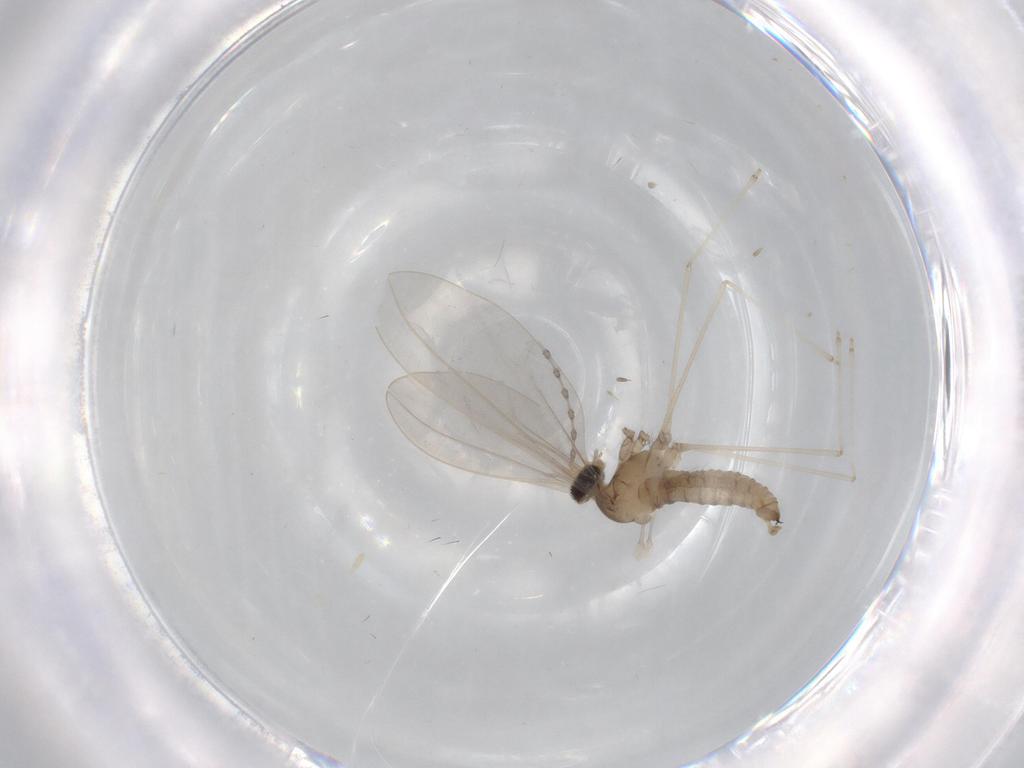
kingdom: Animalia
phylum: Arthropoda
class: Insecta
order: Diptera
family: Cecidomyiidae
